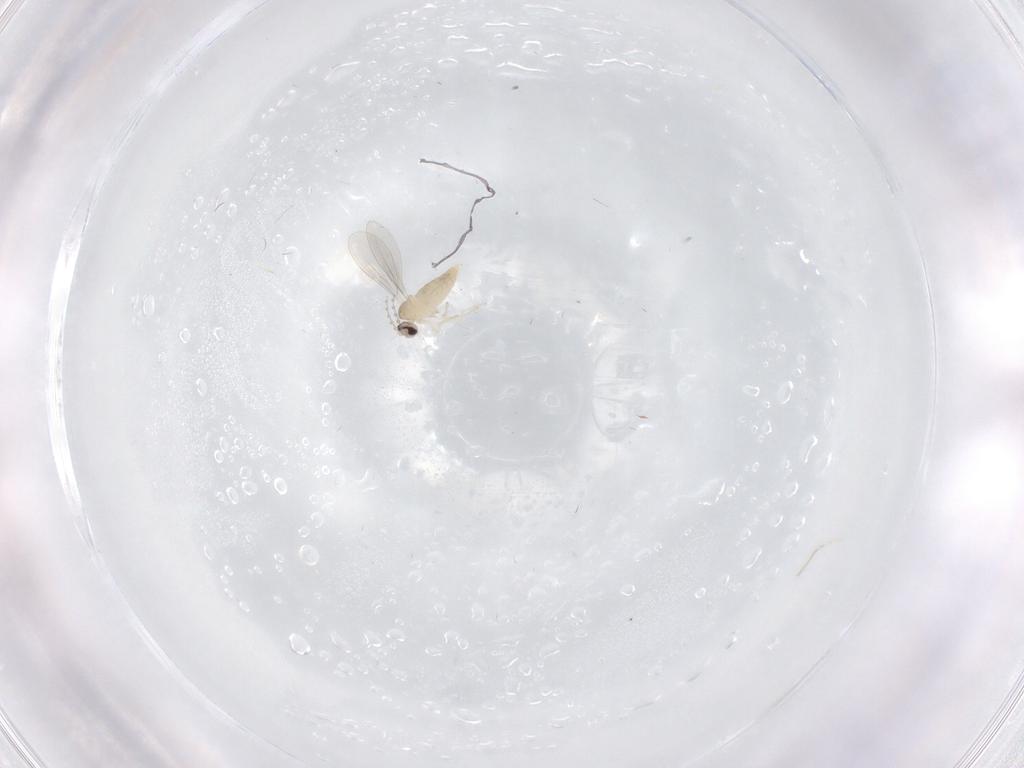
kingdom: Animalia
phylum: Arthropoda
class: Insecta
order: Diptera
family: Cecidomyiidae
